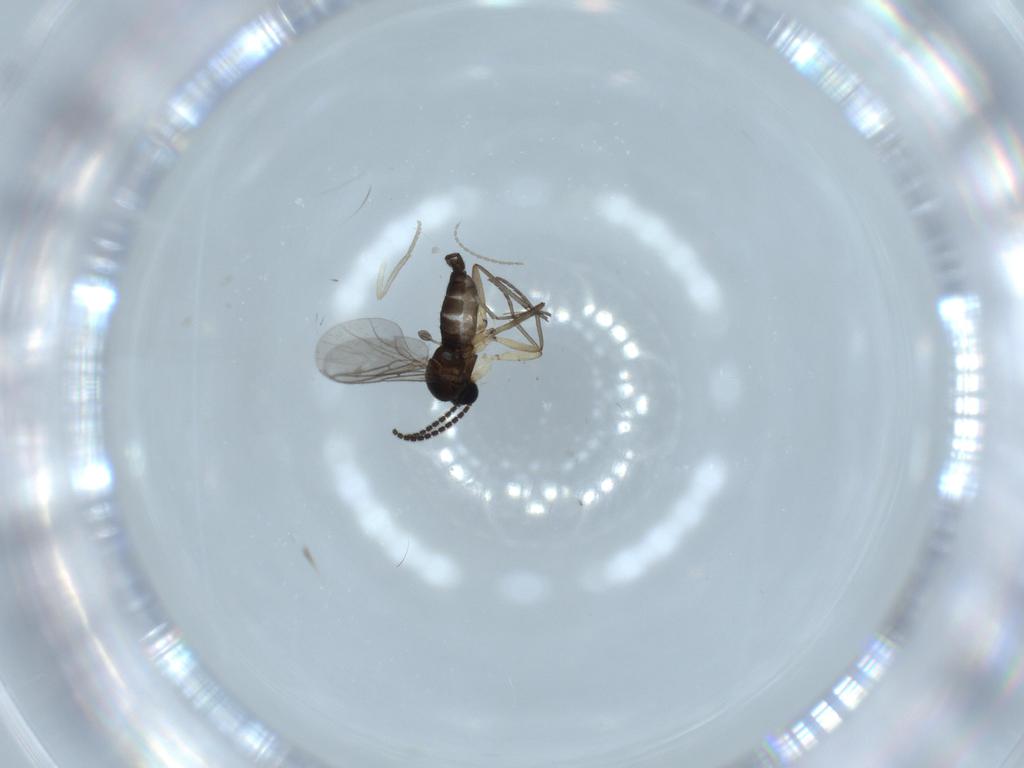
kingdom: Animalia
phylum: Arthropoda
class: Insecta
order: Diptera
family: Sciaridae
